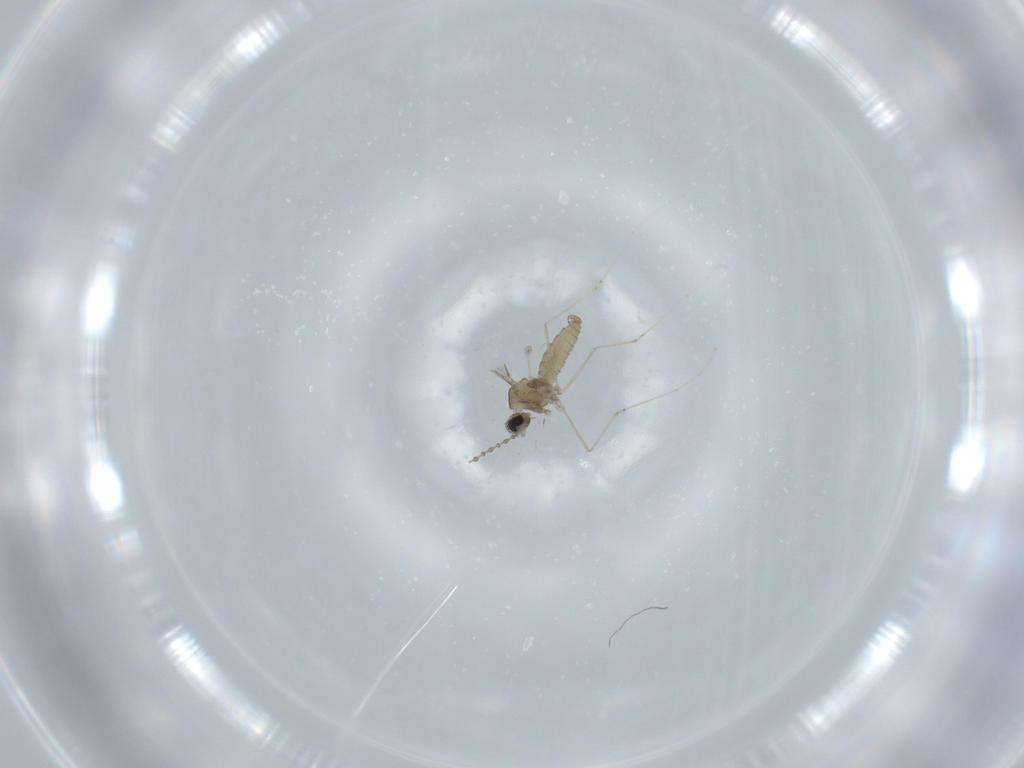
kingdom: Animalia
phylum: Arthropoda
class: Insecta
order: Diptera
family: Cecidomyiidae
